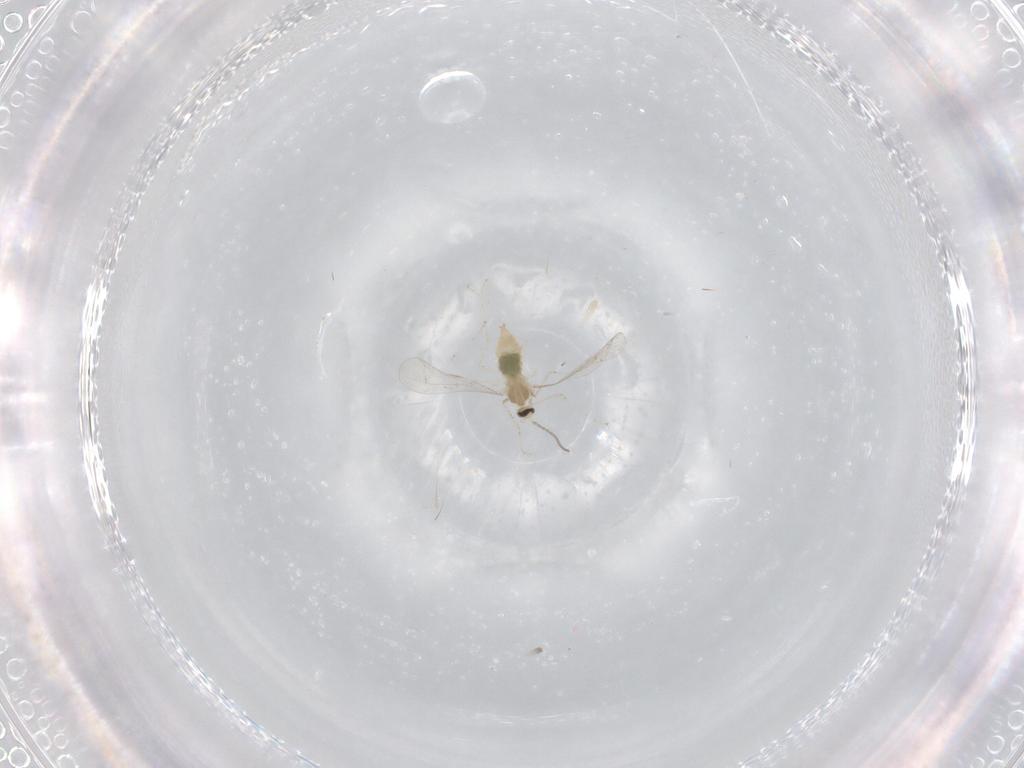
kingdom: Animalia
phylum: Arthropoda
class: Insecta
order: Diptera
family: Cecidomyiidae
